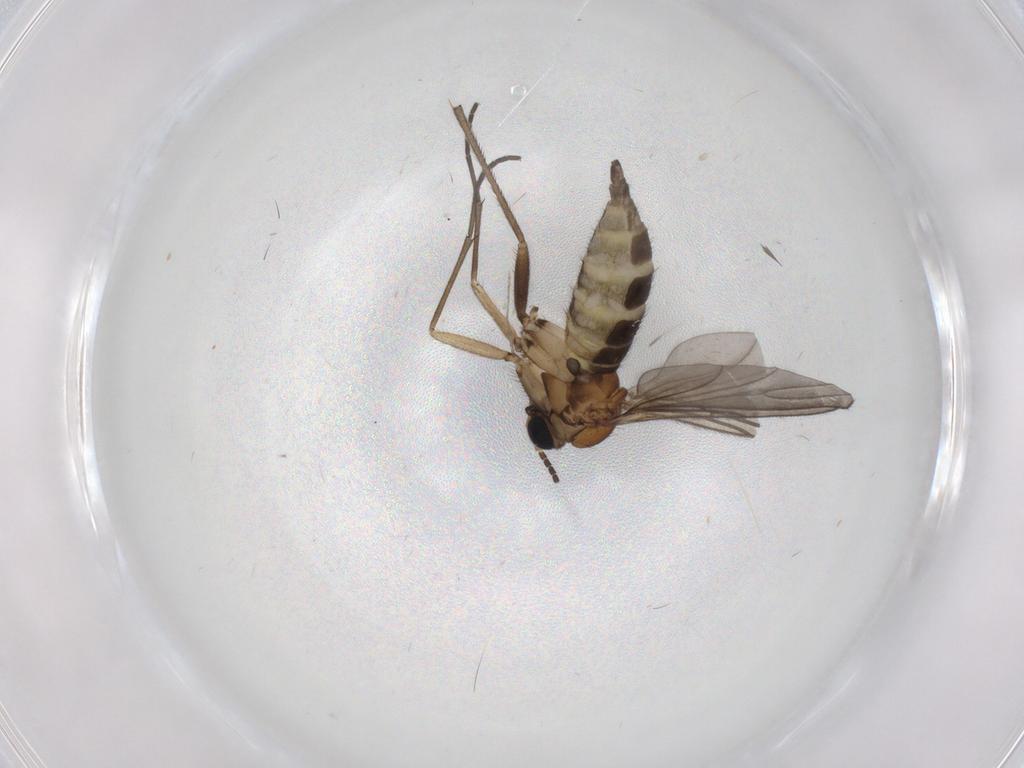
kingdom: Animalia
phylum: Arthropoda
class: Insecta
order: Diptera
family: Sciaridae
